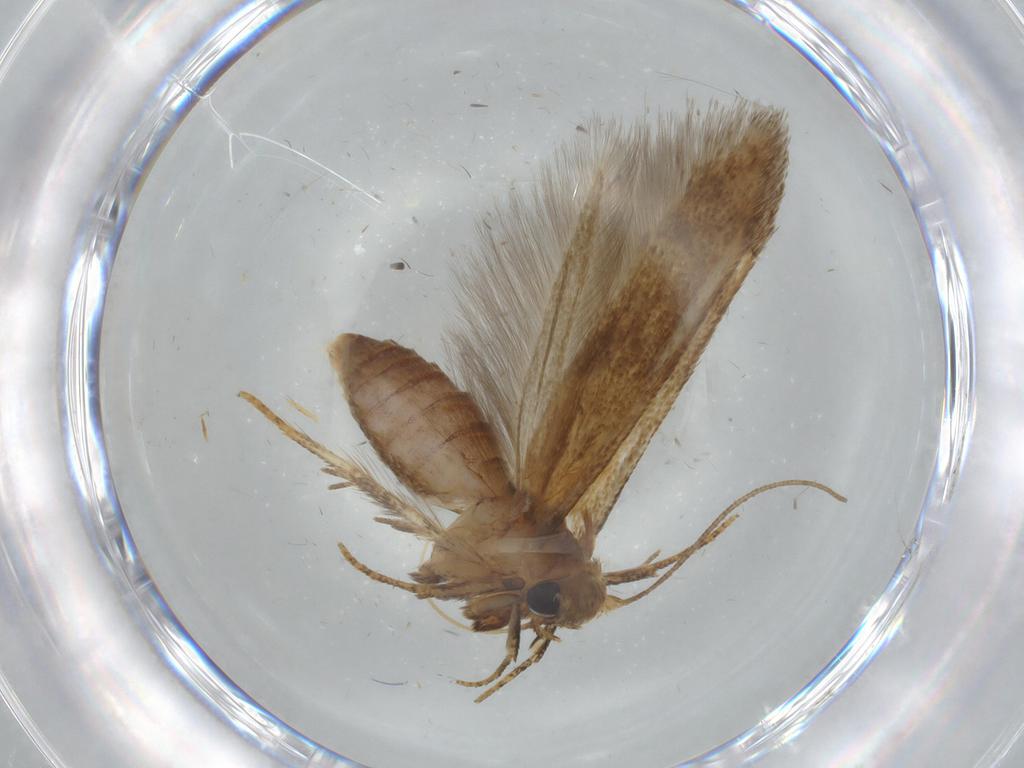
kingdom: Animalia
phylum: Arthropoda
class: Insecta
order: Lepidoptera
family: Blastobasidae
